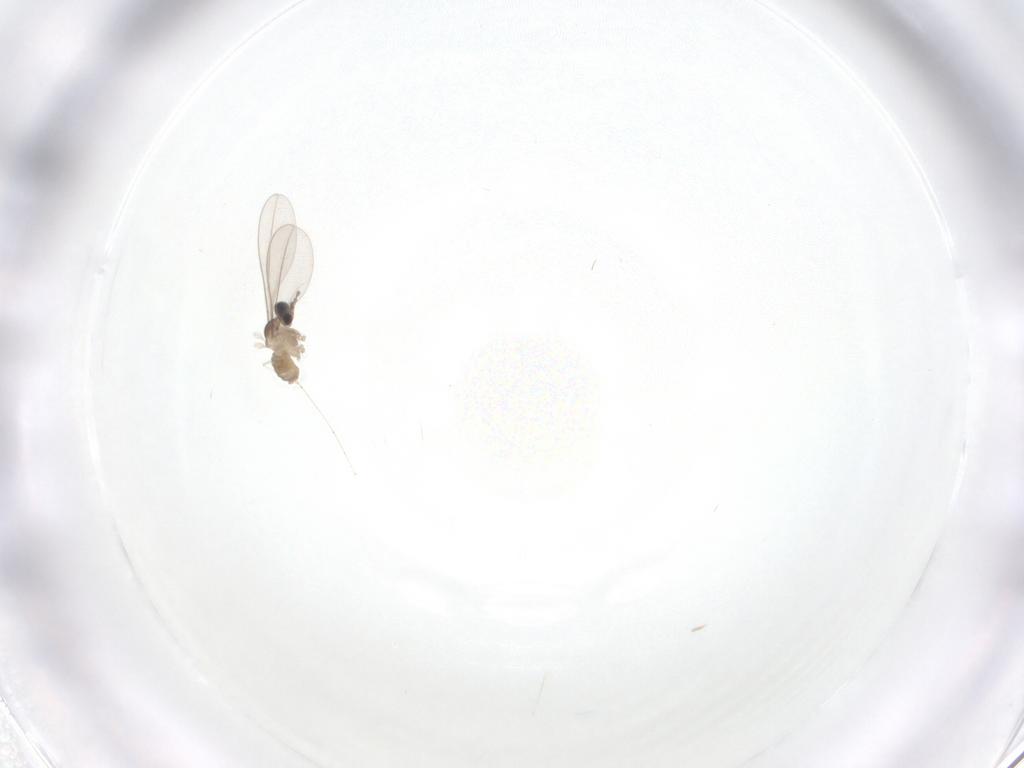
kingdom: Animalia
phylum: Arthropoda
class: Insecta
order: Diptera
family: Cecidomyiidae
